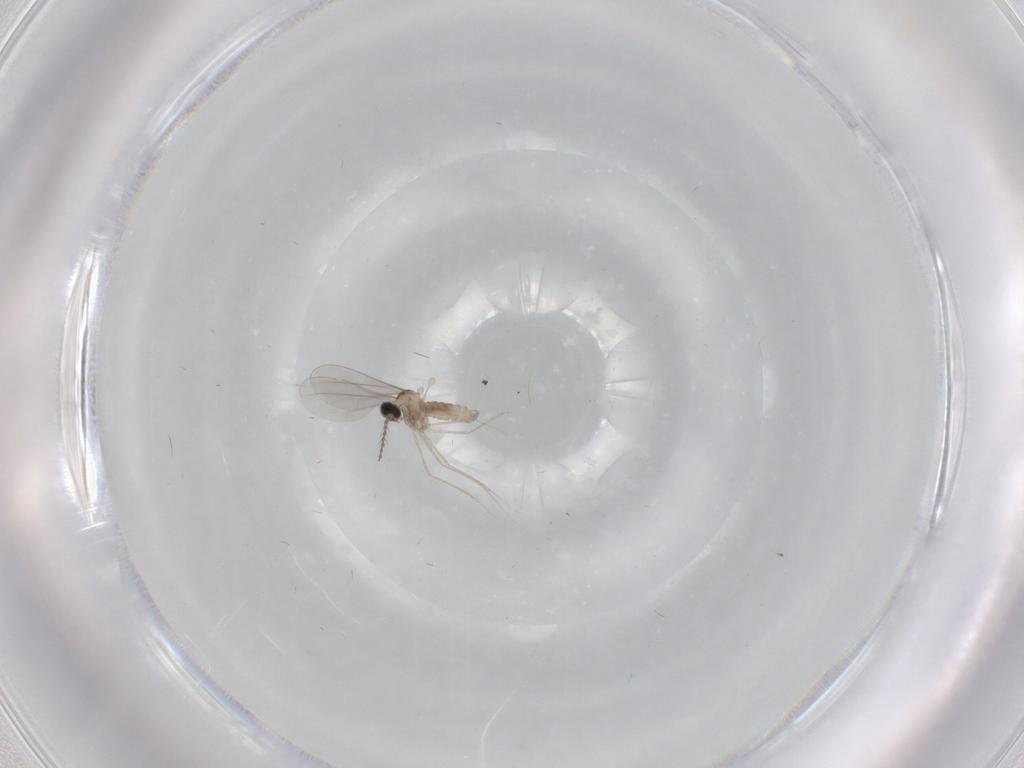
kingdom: Animalia
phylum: Arthropoda
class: Insecta
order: Diptera
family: Cecidomyiidae
